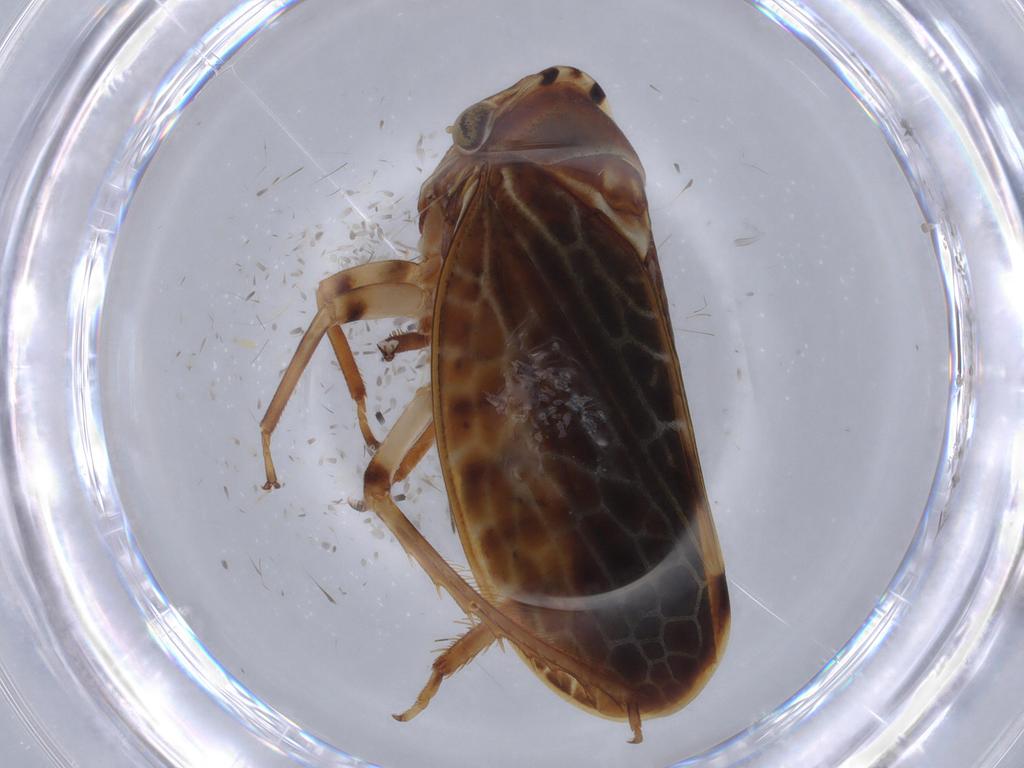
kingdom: Animalia
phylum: Arthropoda
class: Insecta
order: Hemiptera
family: Cicadellidae
